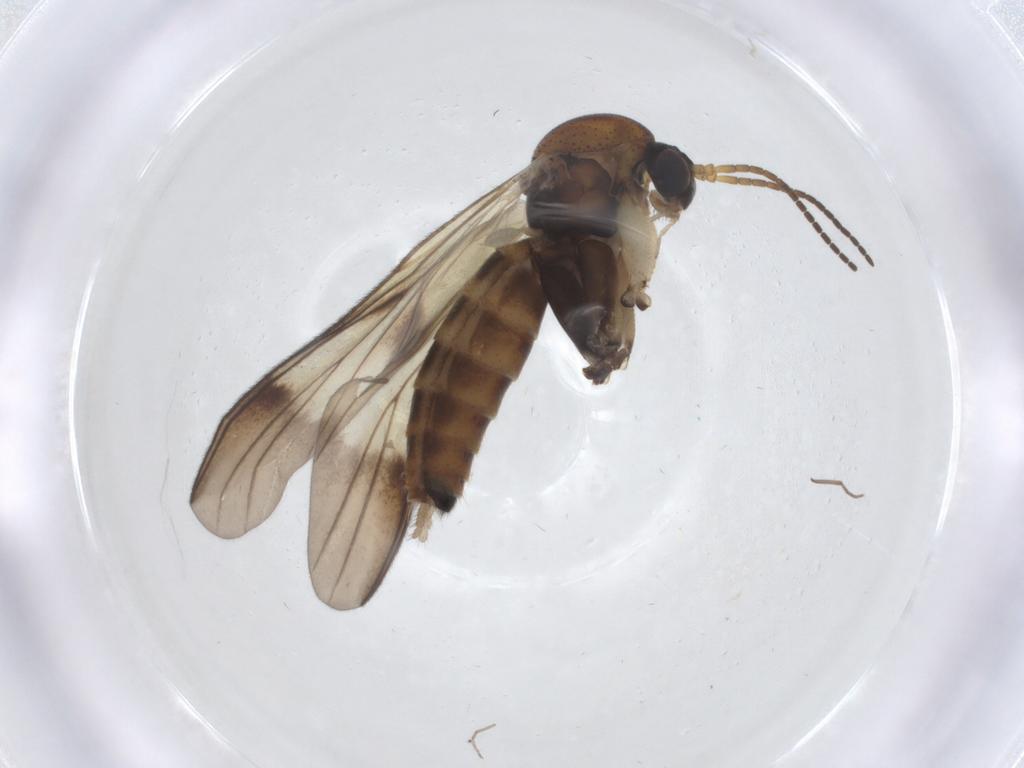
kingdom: Animalia
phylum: Arthropoda
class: Insecta
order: Diptera
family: Mycetophilidae
